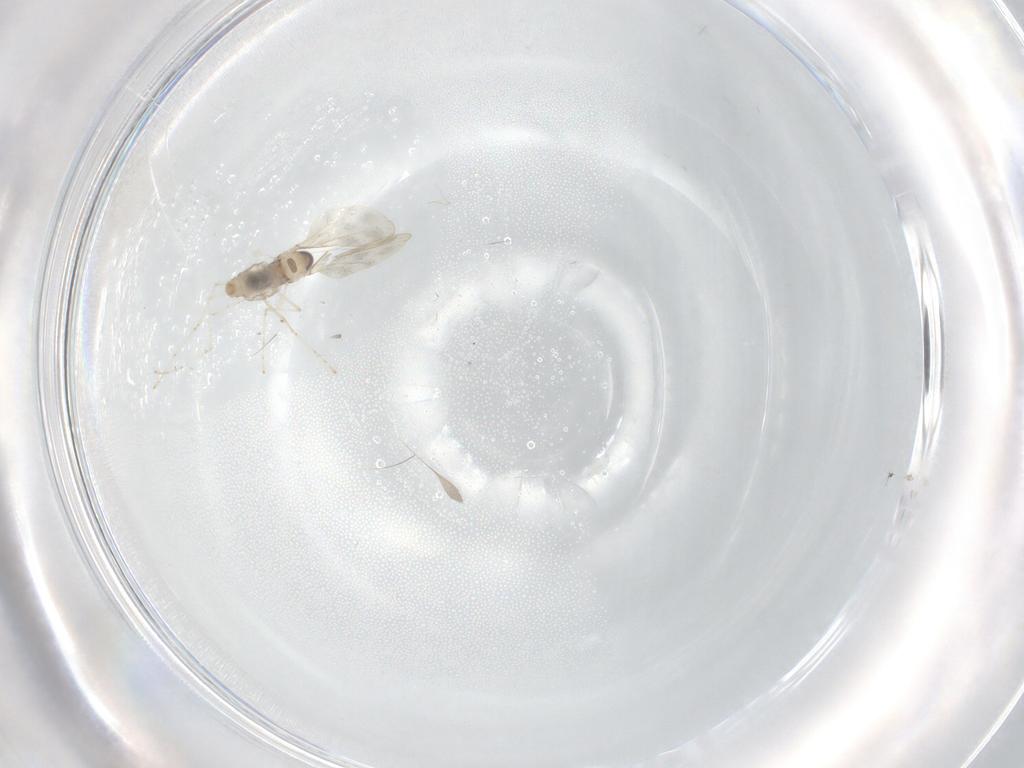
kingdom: Animalia
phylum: Arthropoda
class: Insecta
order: Diptera
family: Cecidomyiidae
